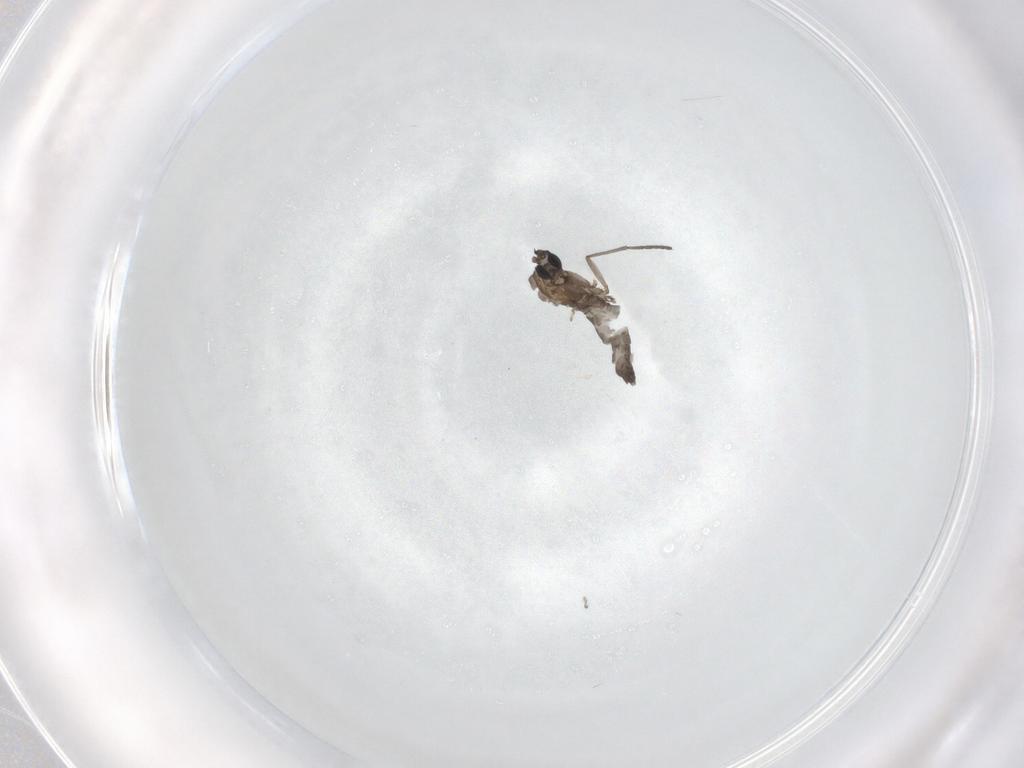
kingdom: Animalia
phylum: Arthropoda
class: Insecta
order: Diptera
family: Sciaridae
